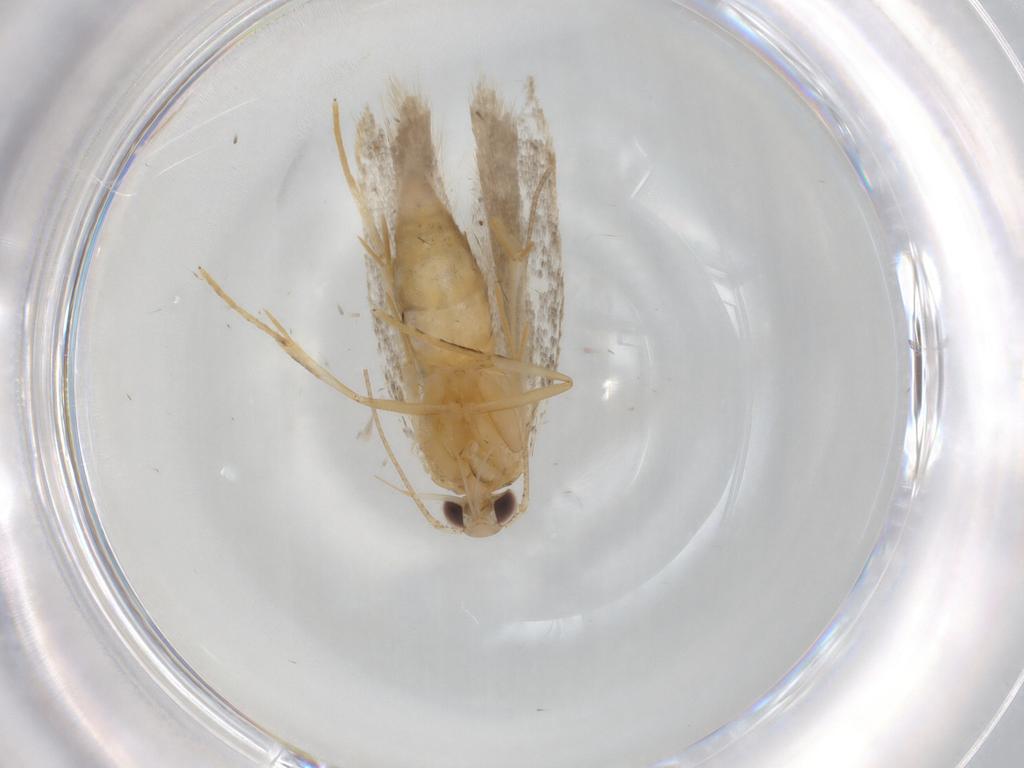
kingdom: Animalia
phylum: Arthropoda
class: Insecta
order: Lepidoptera
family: Autostichidae
